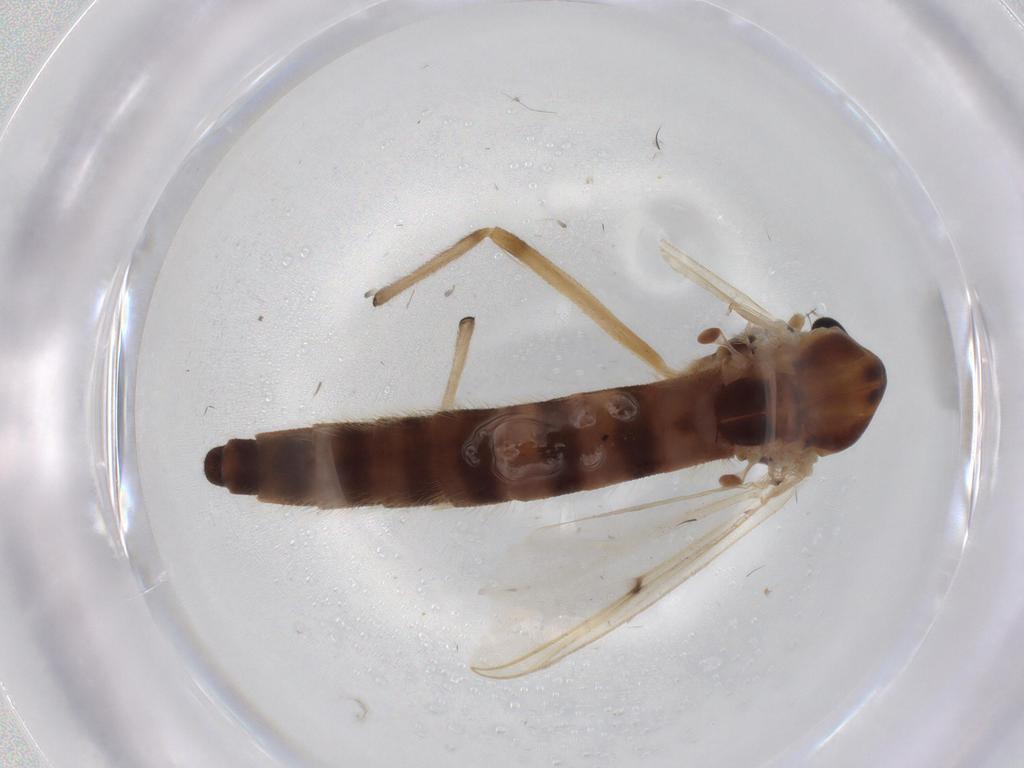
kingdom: Animalia
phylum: Arthropoda
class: Insecta
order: Diptera
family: Chironomidae
